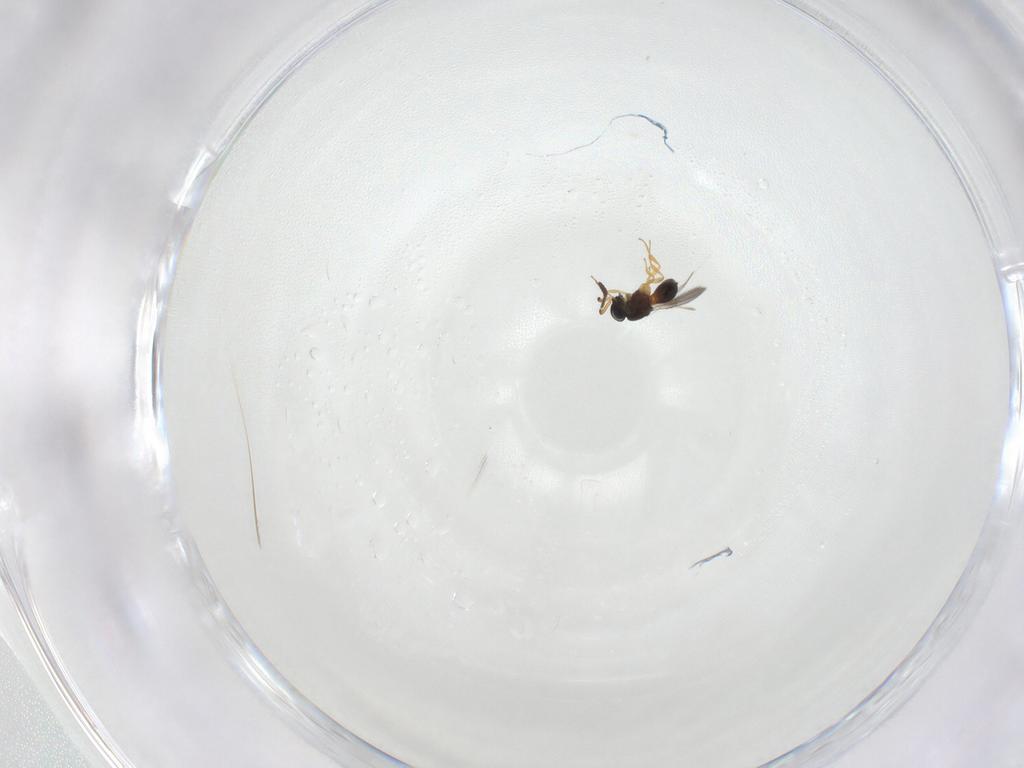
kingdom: Animalia
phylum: Arthropoda
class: Insecta
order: Hymenoptera
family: Scelionidae
